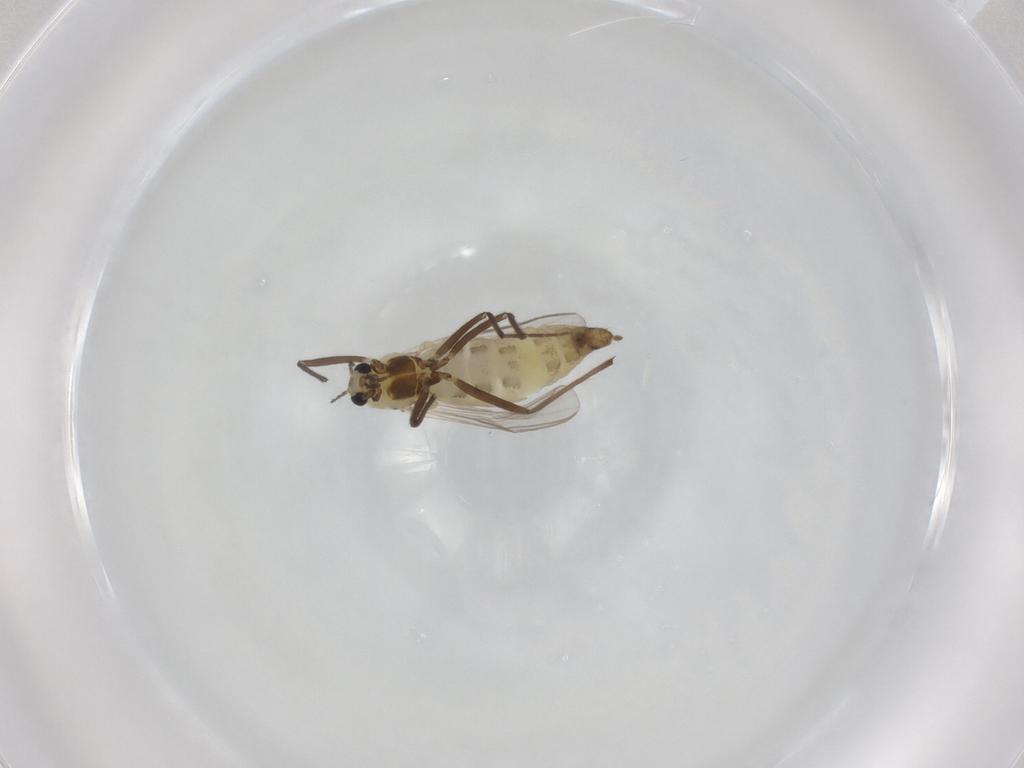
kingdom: Animalia
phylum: Arthropoda
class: Insecta
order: Diptera
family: Chironomidae
